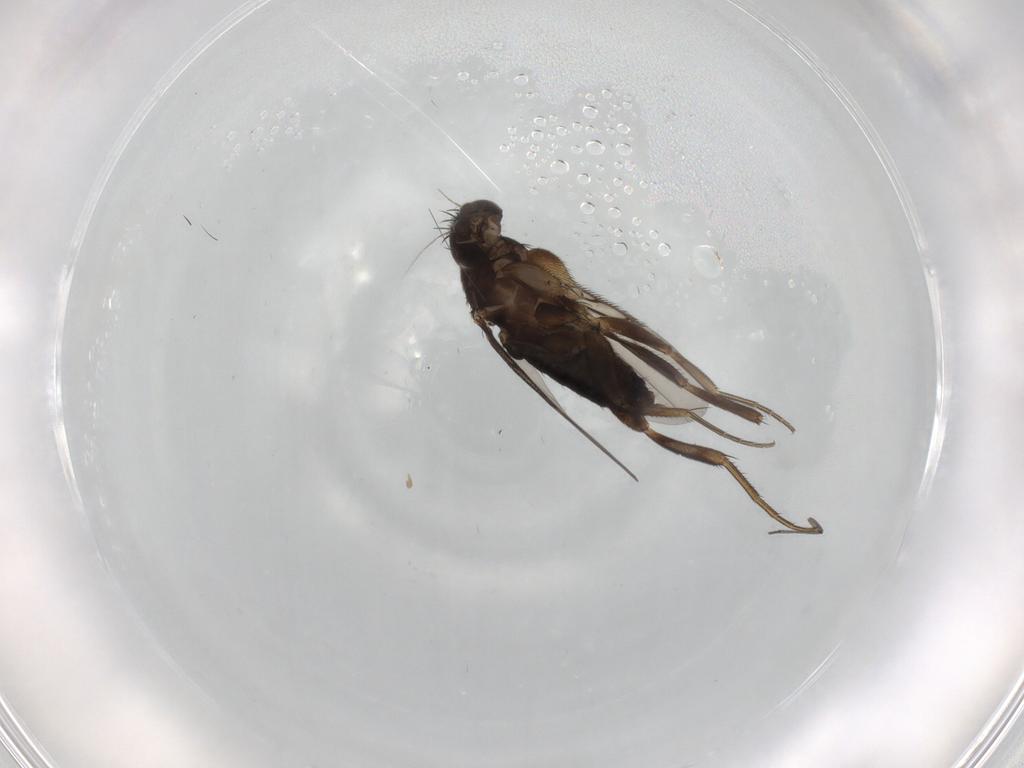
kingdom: Animalia
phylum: Arthropoda
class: Insecta
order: Diptera
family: Phoridae
